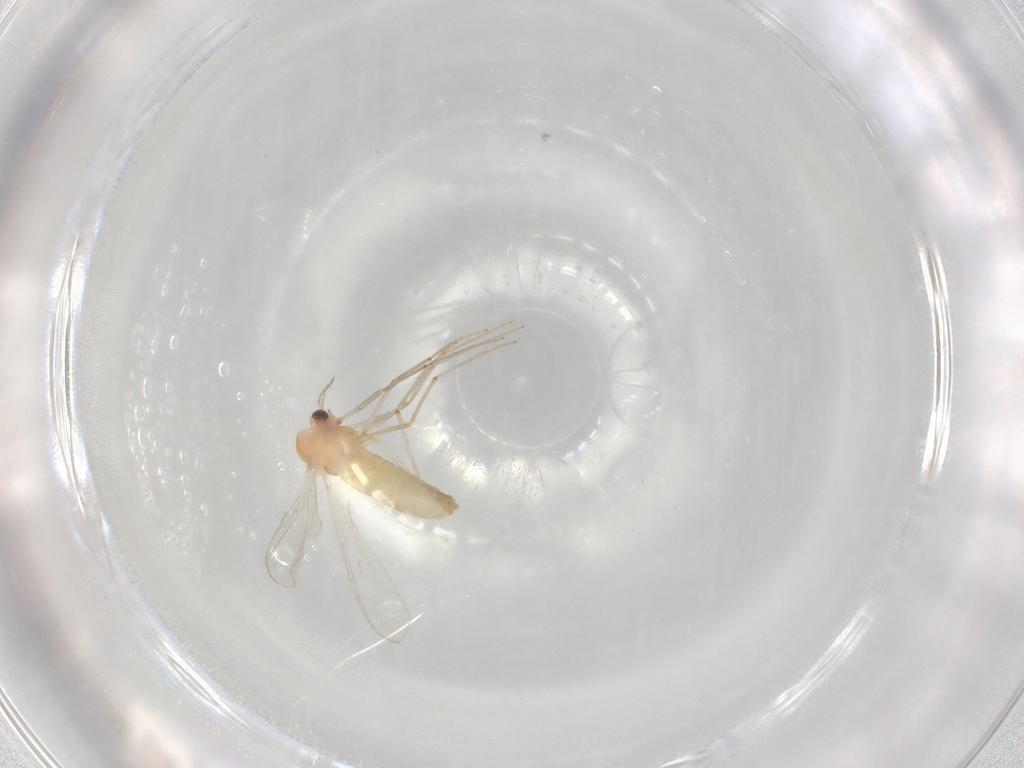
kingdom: Animalia
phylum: Arthropoda
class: Insecta
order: Diptera
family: Chironomidae
